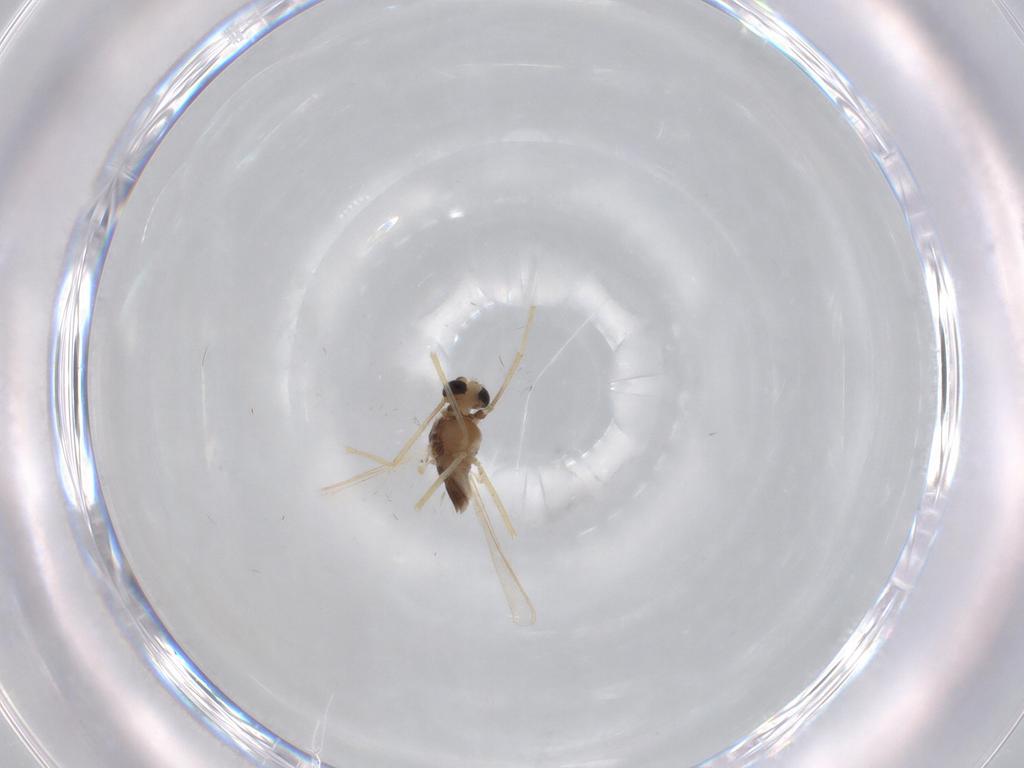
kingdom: Animalia
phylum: Arthropoda
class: Insecta
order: Diptera
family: Chironomidae
